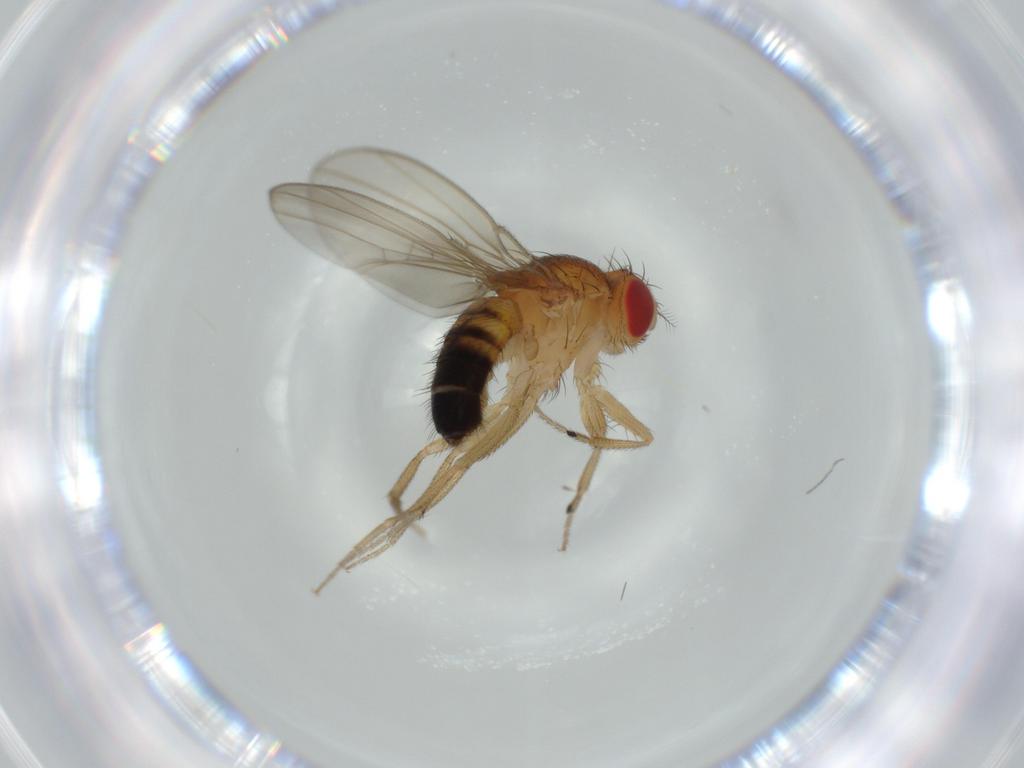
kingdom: Animalia
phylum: Arthropoda
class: Insecta
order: Diptera
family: Drosophilidae
